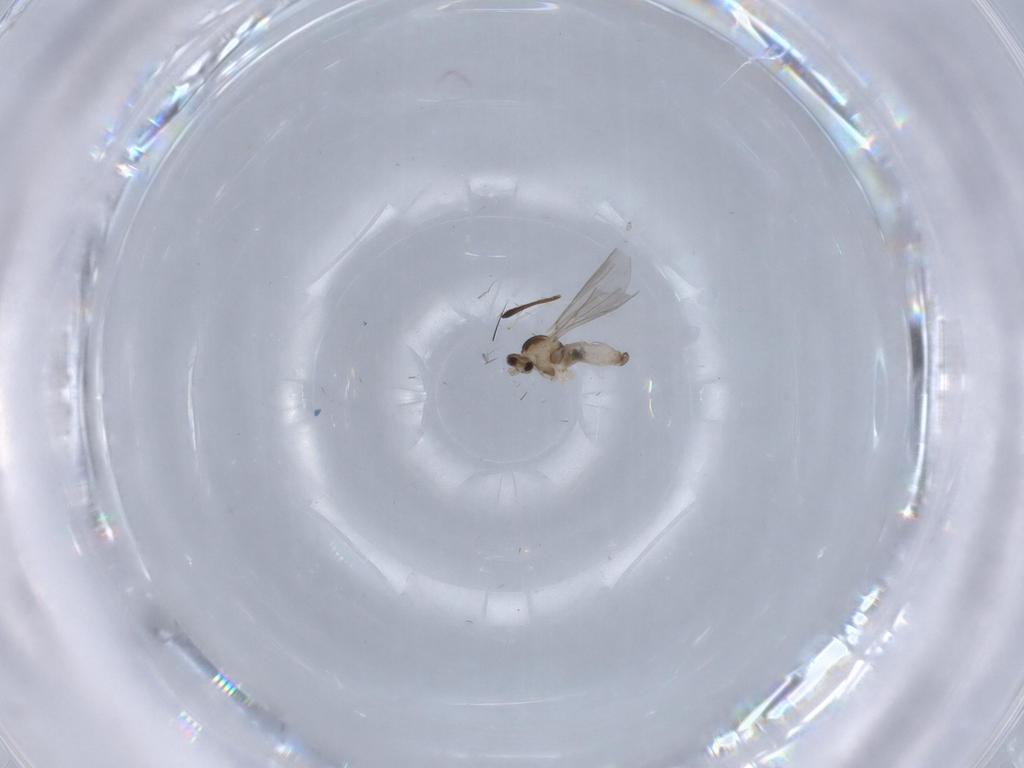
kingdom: Animalia
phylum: Arthropoda
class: Insecta
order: Diptera
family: Cecidomyiidae
